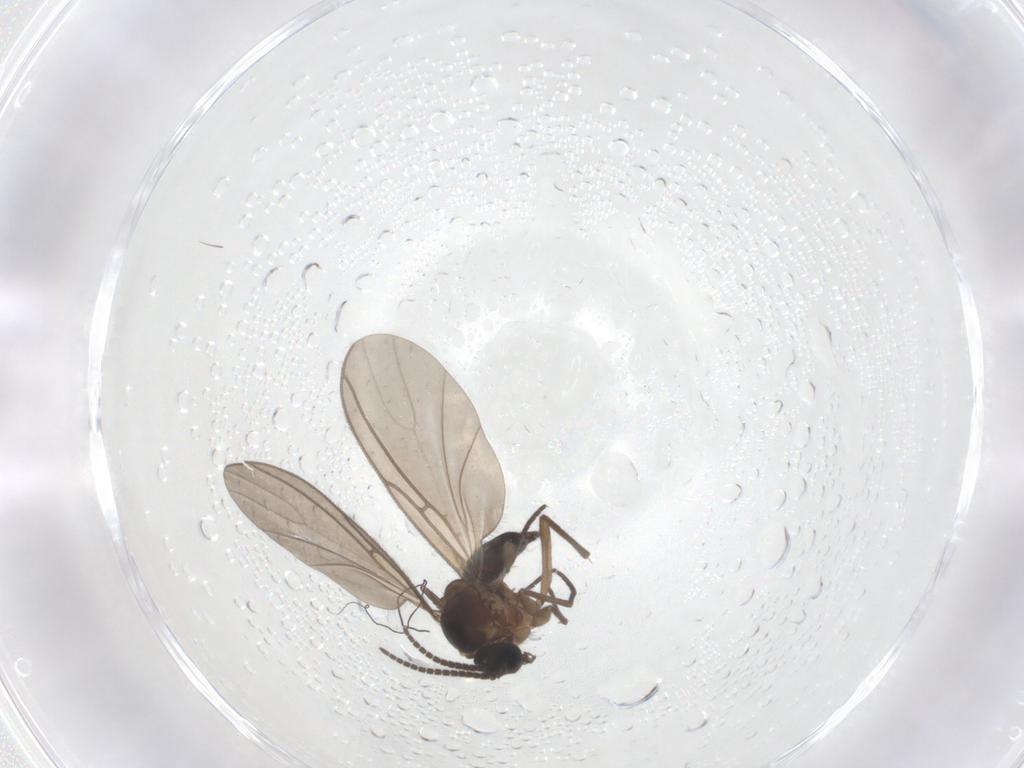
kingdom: Animalia
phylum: Arthropoda
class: Insecta
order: Diptera
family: Sciaridae
